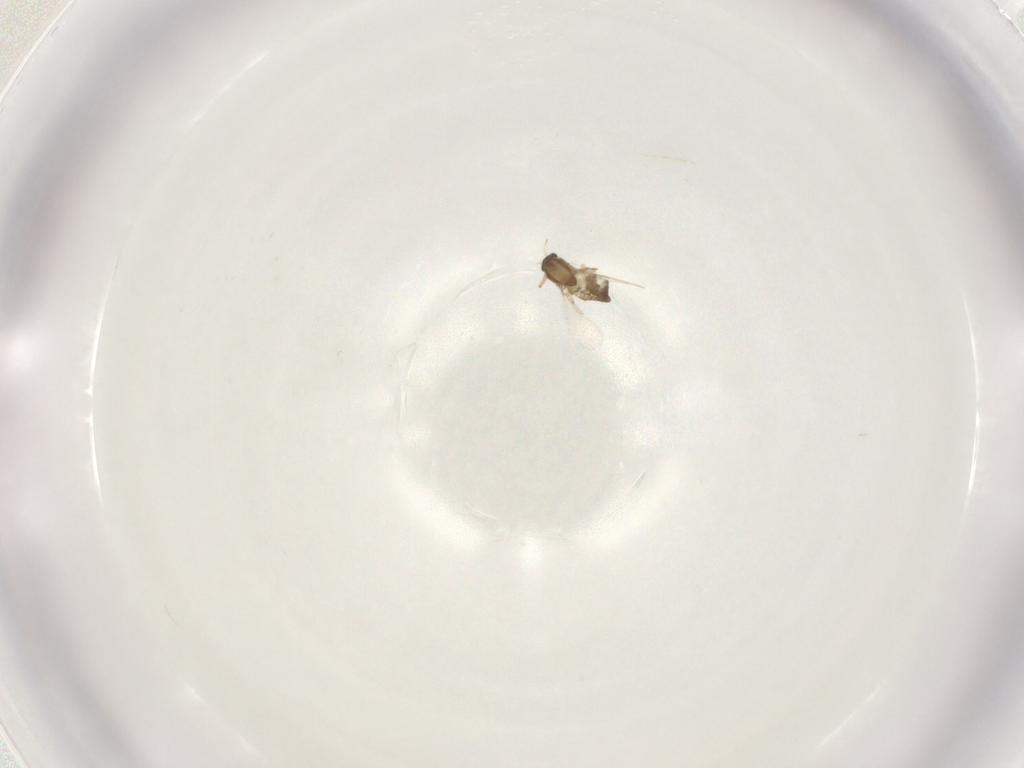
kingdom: Animalia
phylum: Arthropoda
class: Insecta
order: Diptera
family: Chironomidae
